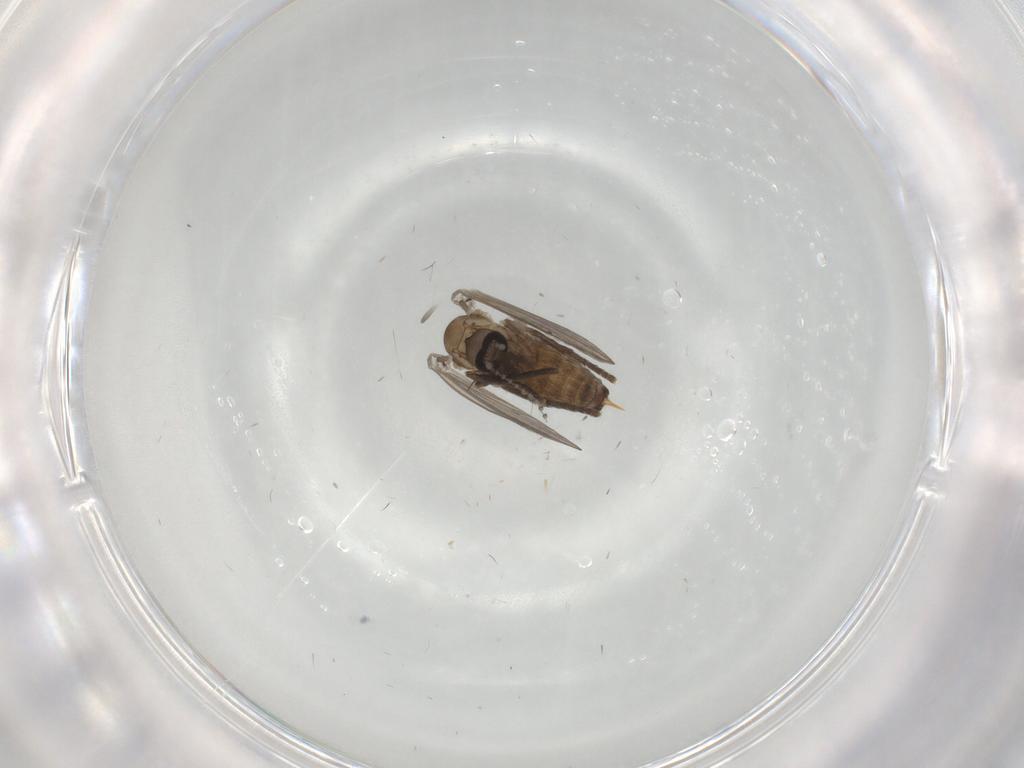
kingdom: Animalia
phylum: Arthropoda
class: Insecta
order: Diptera
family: Psychodidae
